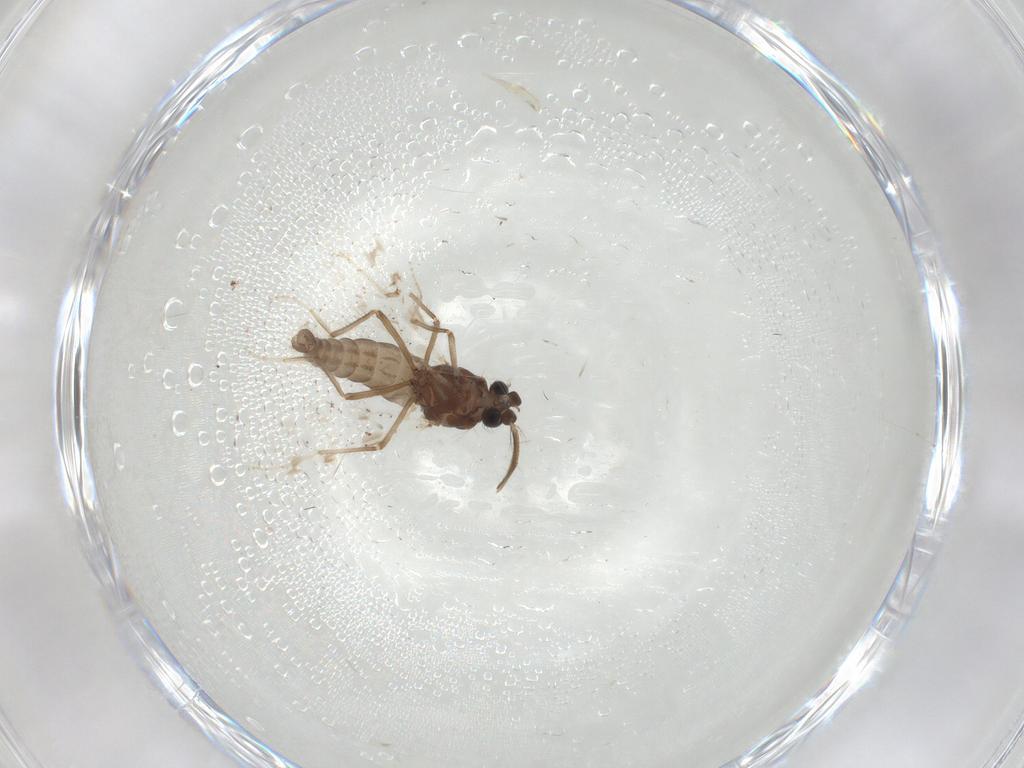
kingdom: Animalia
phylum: Arthropoda
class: Insecta
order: Diptera
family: Ceratopogonidae
